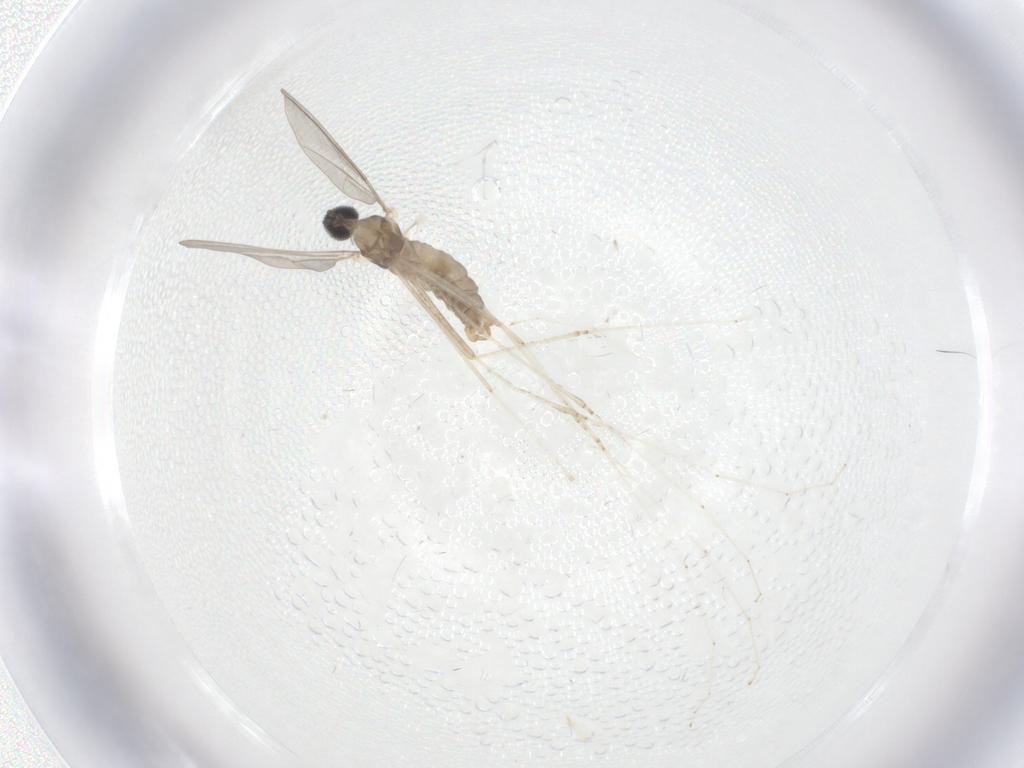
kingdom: Animalia
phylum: Arthropoda
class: Insecta
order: Diptera
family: Cecidomyiidae
